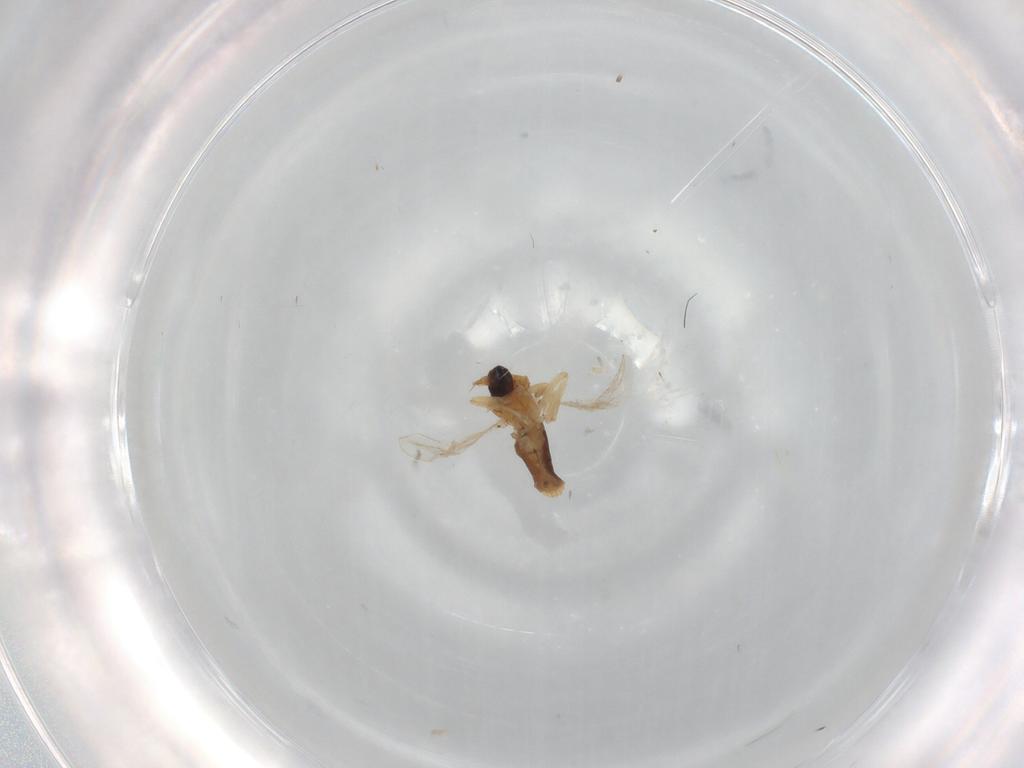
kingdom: Animalia
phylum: Arthropoda
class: Insecta
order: Diptera
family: Ceratopogonidae
